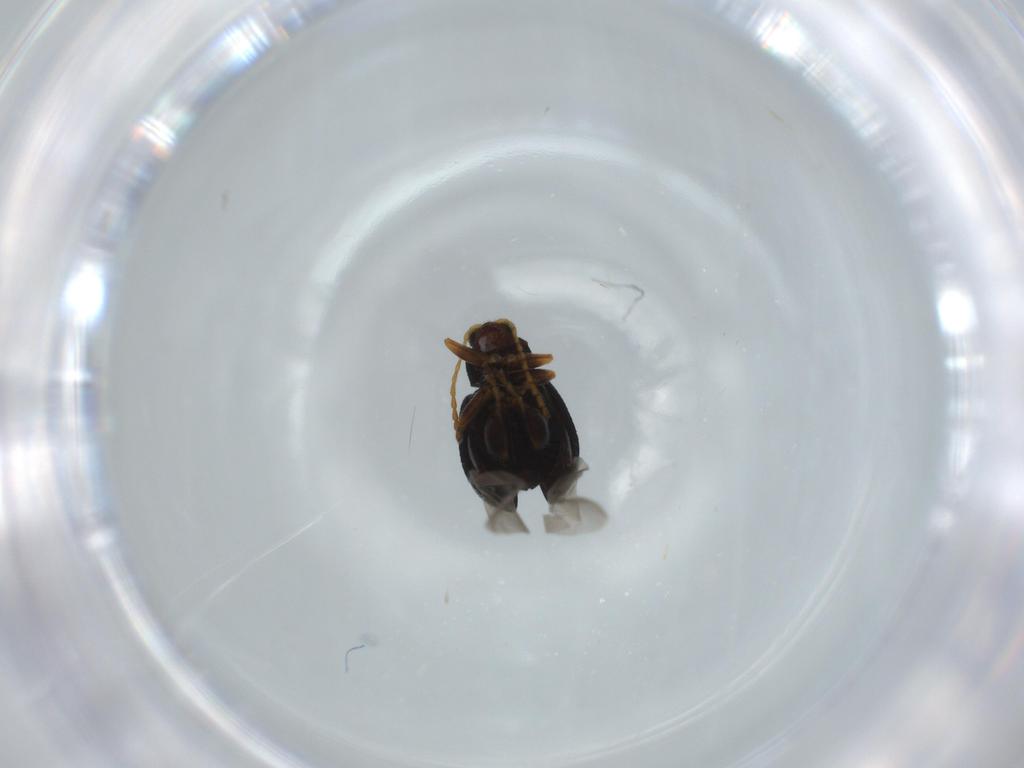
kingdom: Animalia
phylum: Arthropoda
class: Insecta
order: Coleoptera
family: Chrysomelidae
